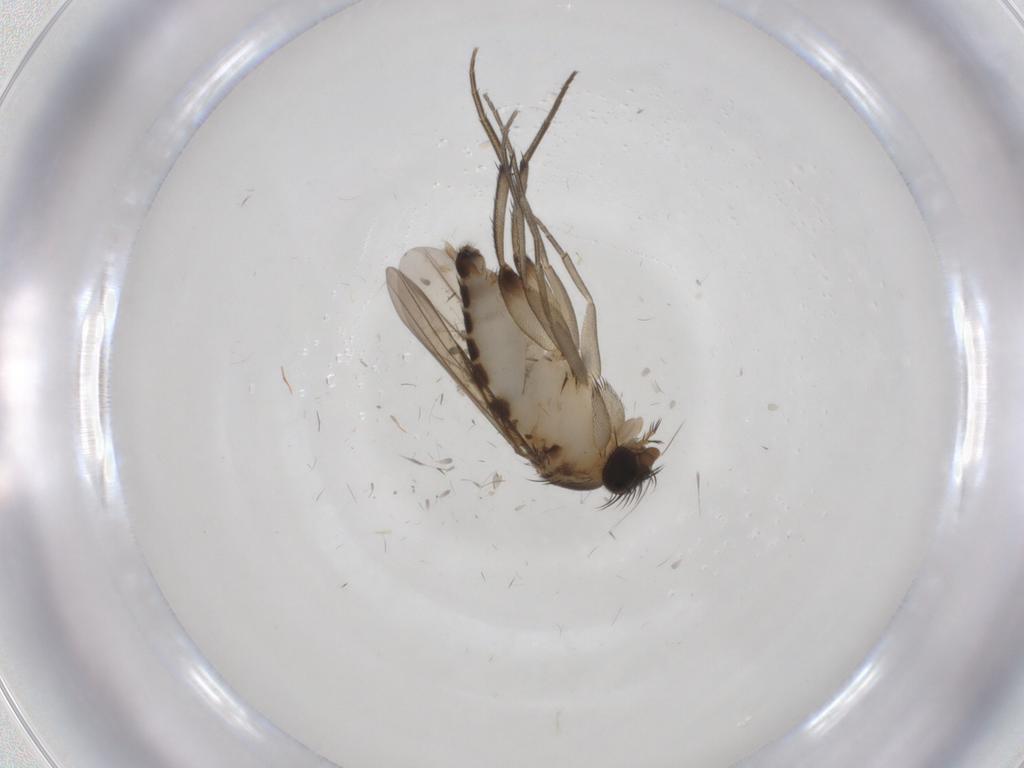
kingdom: Animalia
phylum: Arthropoda
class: Insecta
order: Diptera
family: Phoridae
